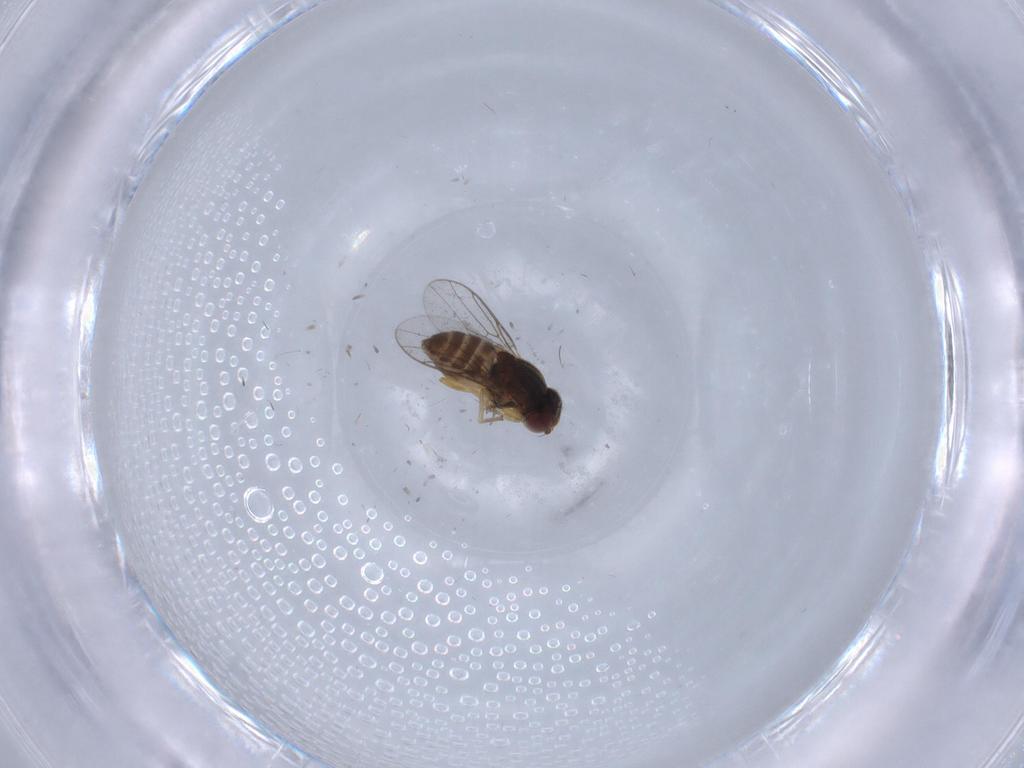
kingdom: Animalia
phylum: Arthropoda
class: Insecta
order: Diptera
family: Chloropidae
